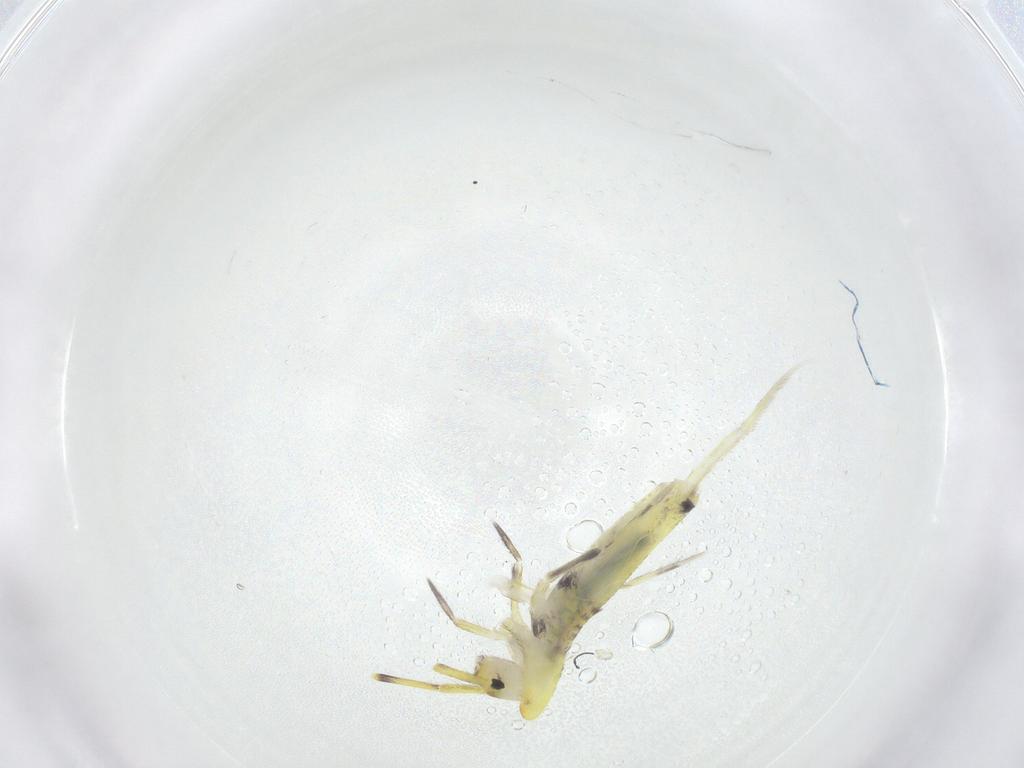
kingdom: Animalia
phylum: Arthropoda
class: Collembola
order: Entomobryomorpha
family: Entomobryidae
